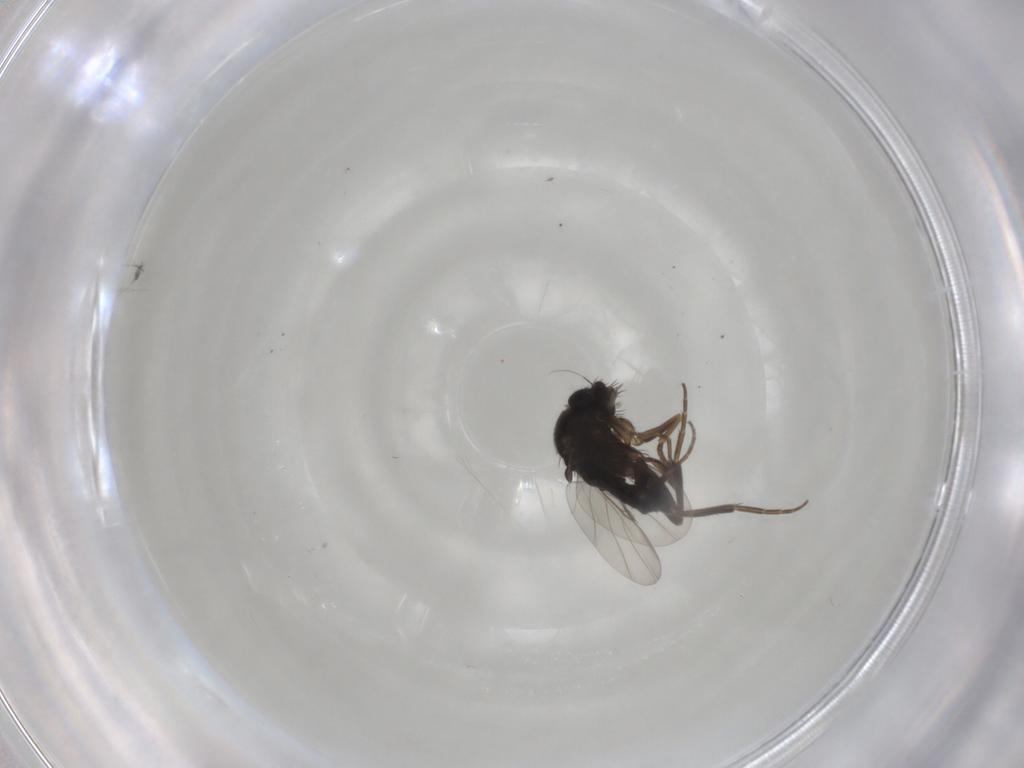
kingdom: Animalia
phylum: Arthropoda
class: Insecta
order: Diptera
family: Phoridae
